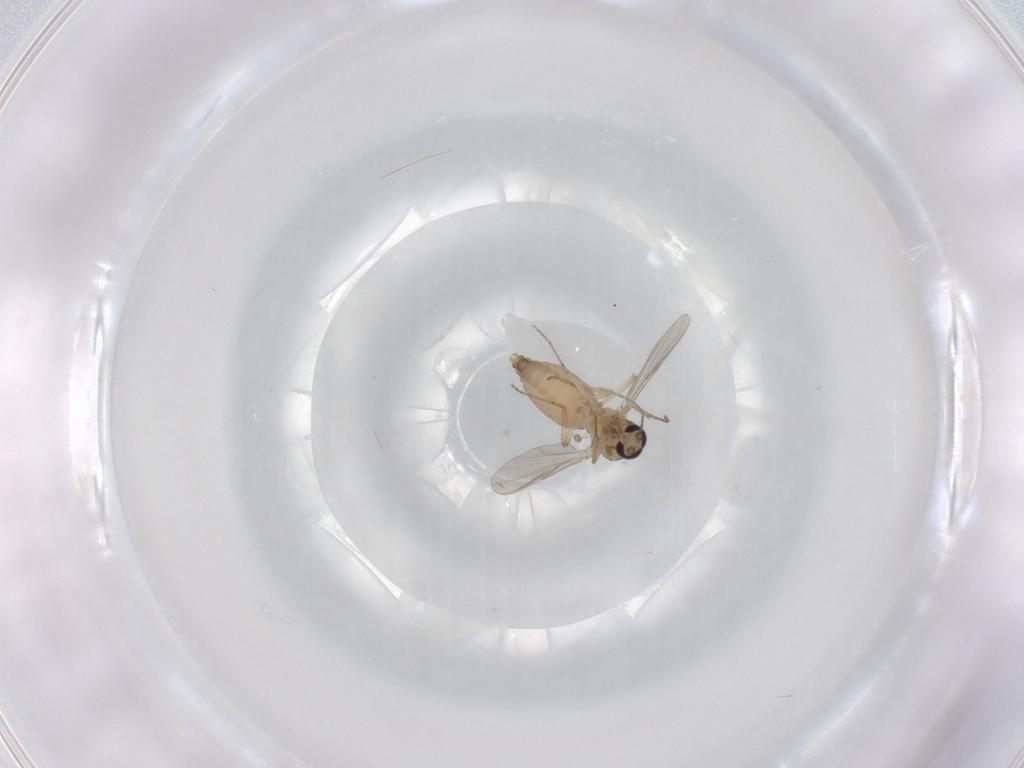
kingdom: Animalia
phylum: Arthropoda
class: Insecta
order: Diptera
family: Ceratopogonidae
